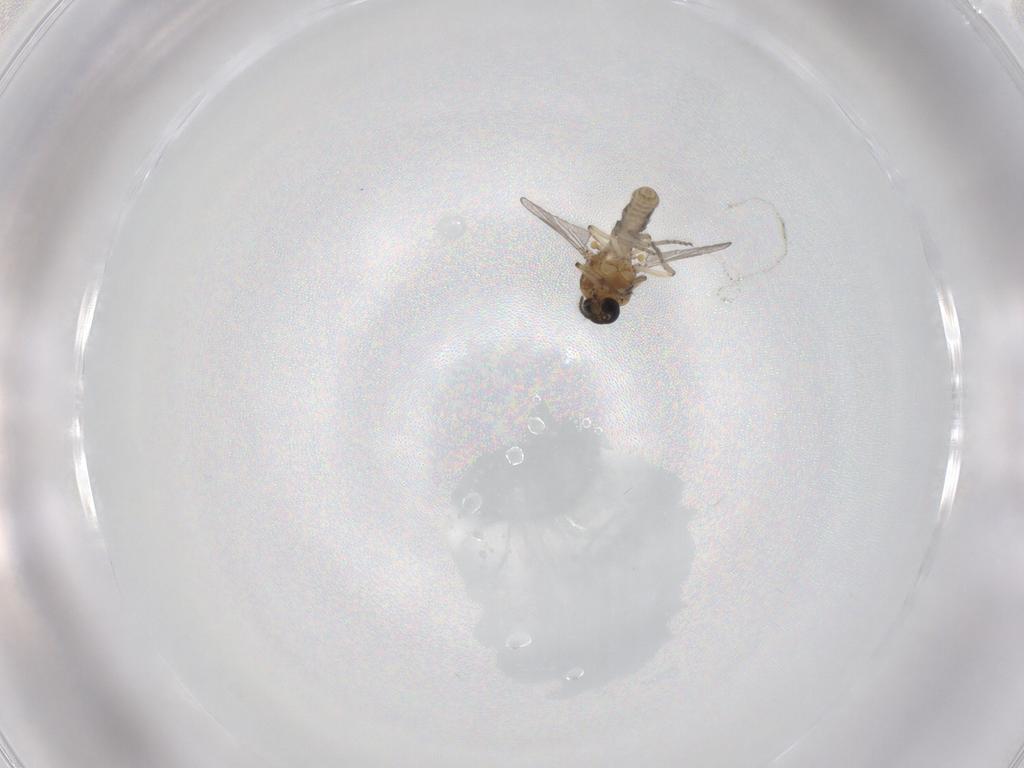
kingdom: Animalia
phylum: Arthropoda
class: Insecta
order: Diptera
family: Ceratopogonidae
